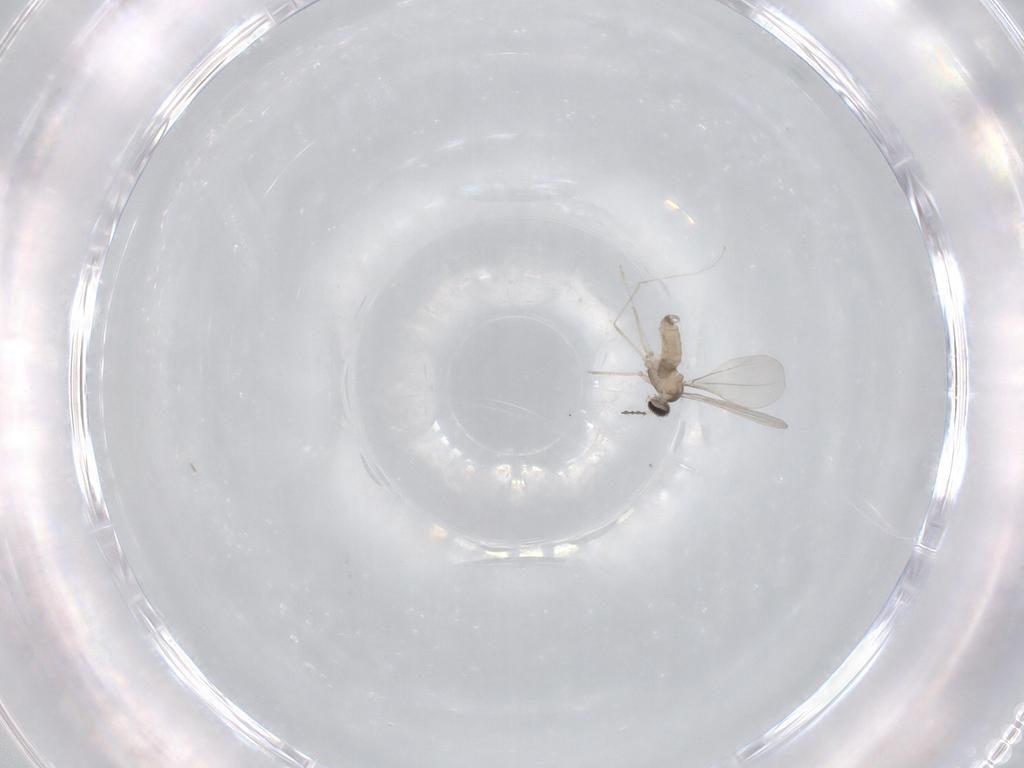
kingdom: Animalia
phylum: Arthropoda
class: Insecta
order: Diptera
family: Cecidomyiidae
